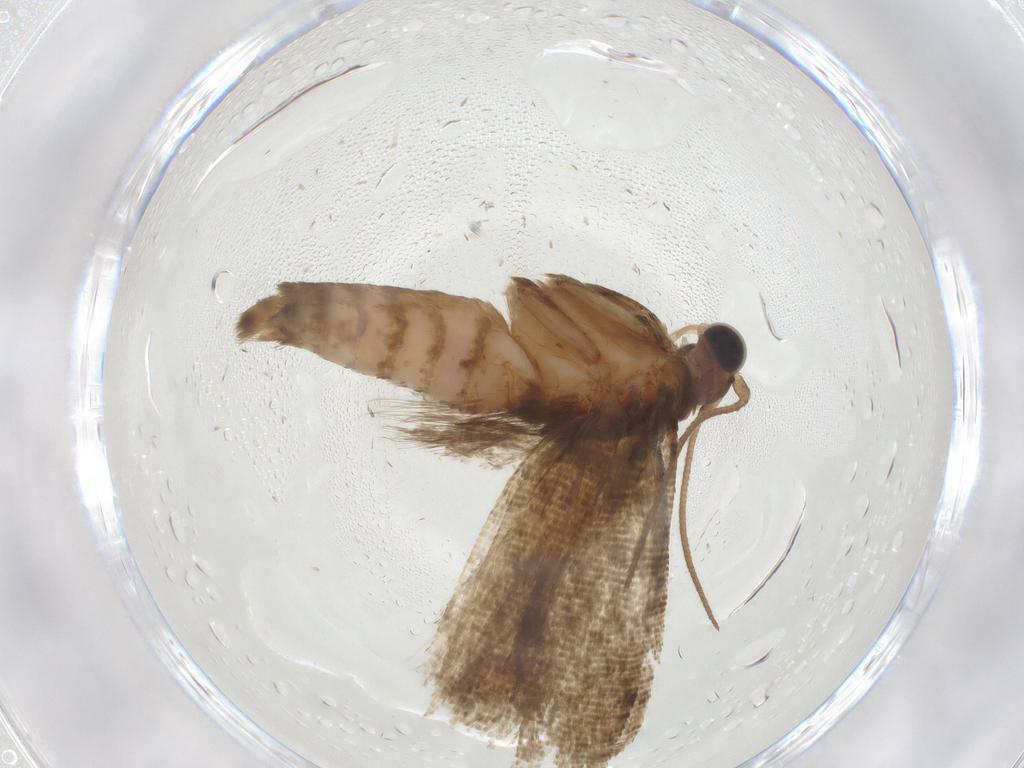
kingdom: Animalia
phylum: Arthropoda
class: Insecta
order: Lepidoptera
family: Tortricidae
